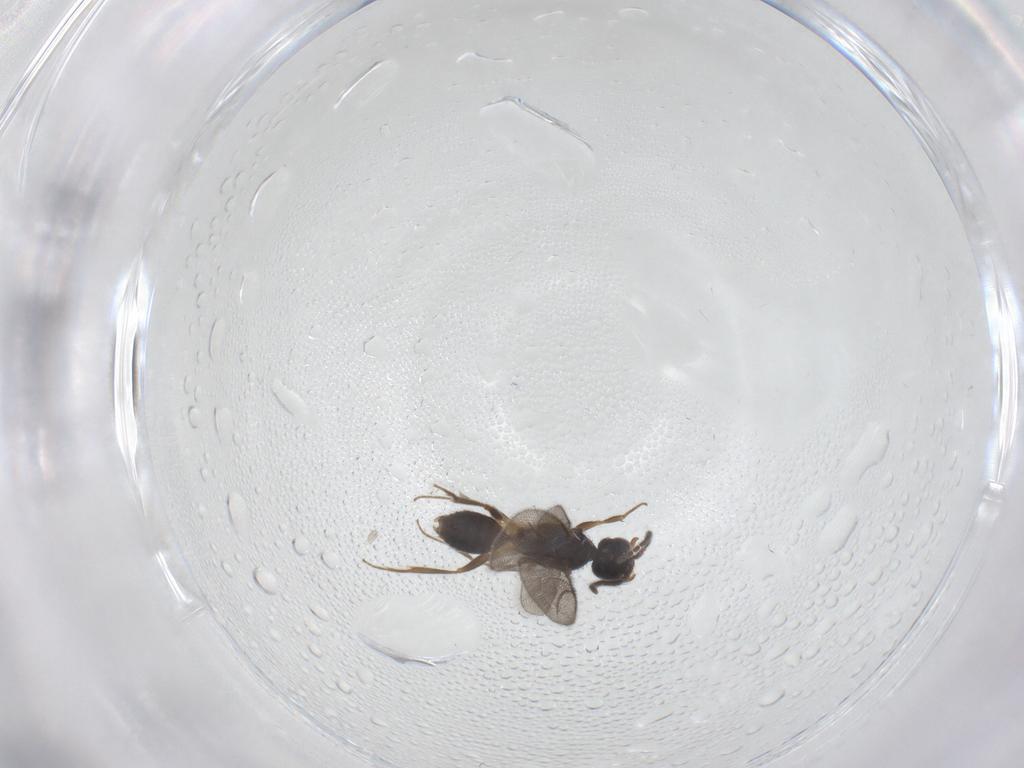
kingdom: Animalia
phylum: Arthropoda
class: Insecta
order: Hymenoptera
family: Bethylidae
